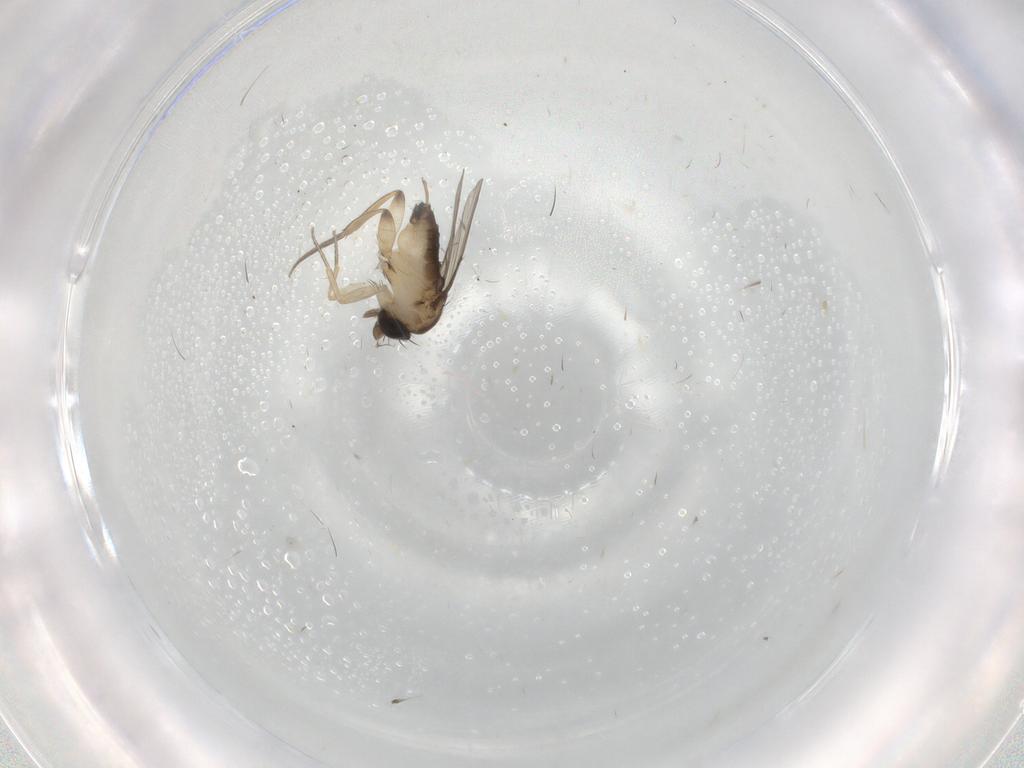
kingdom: Animalia
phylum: Arthropoda
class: Insecta
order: Diptera
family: Phoridae
